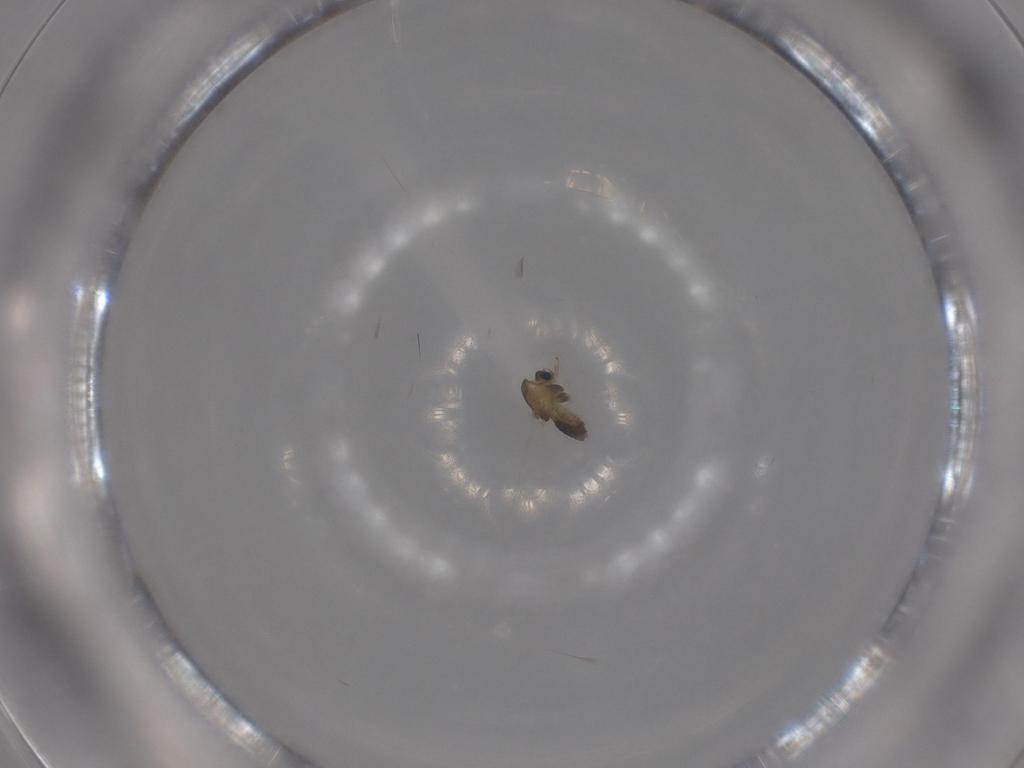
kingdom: Animalia
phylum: Arthropoda
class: Insecta
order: Diptera
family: Chironomidae
